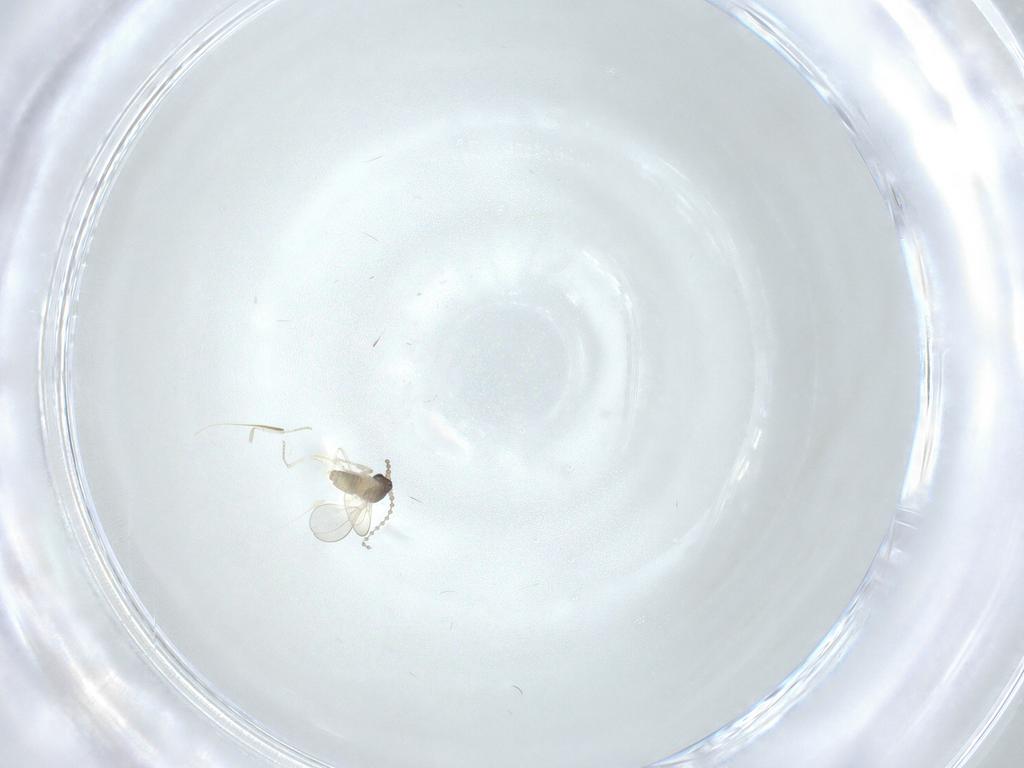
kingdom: Animalia
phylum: Arthropoda
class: Insecta
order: Diptera
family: Cecidomyiidae
